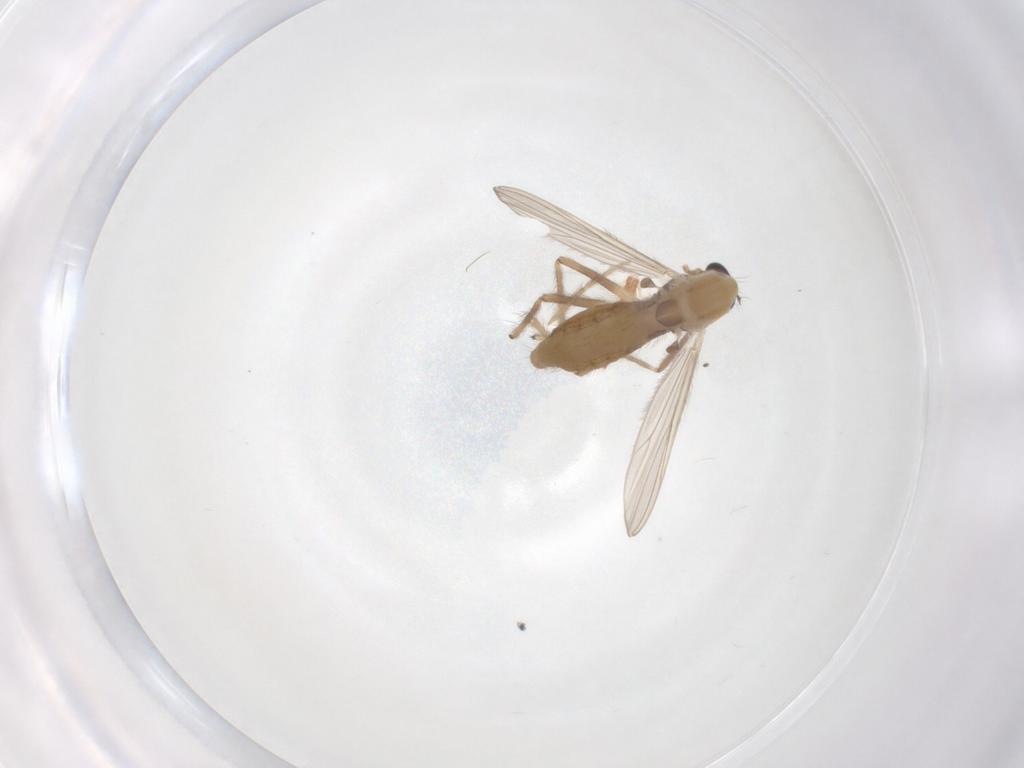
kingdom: Animalia
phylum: Arthropoda
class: Insecta
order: Diptera
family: Chironomidae
